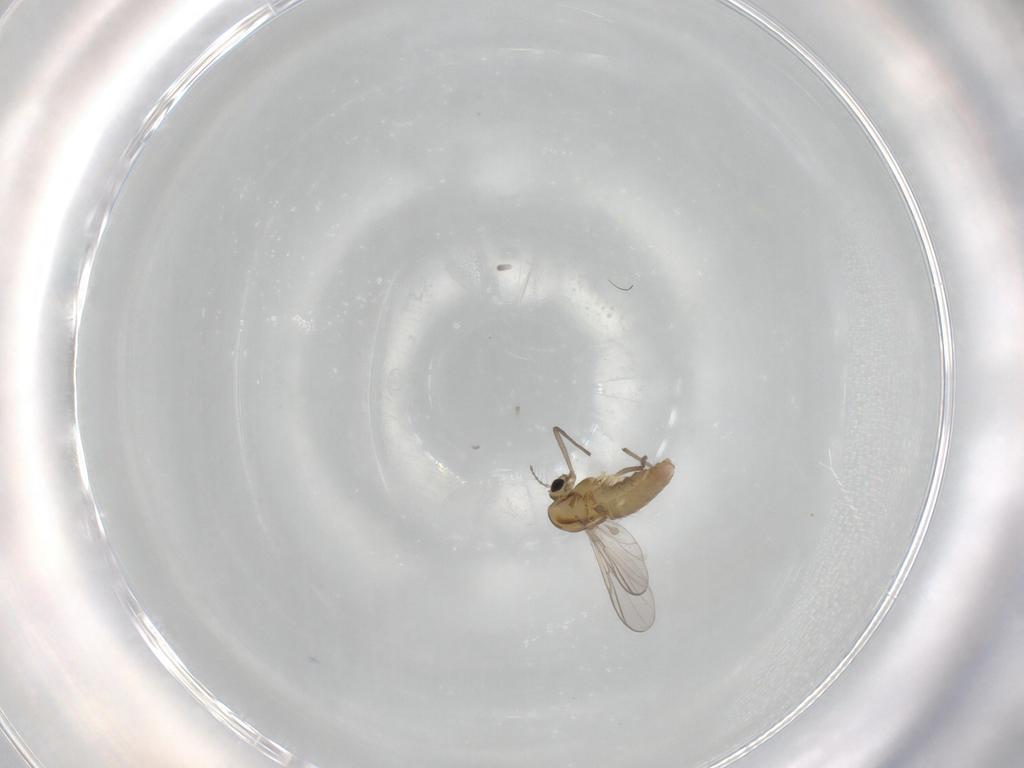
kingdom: Animalia
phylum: Arthropoda
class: Insecta
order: Diptera
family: Chironomidae
